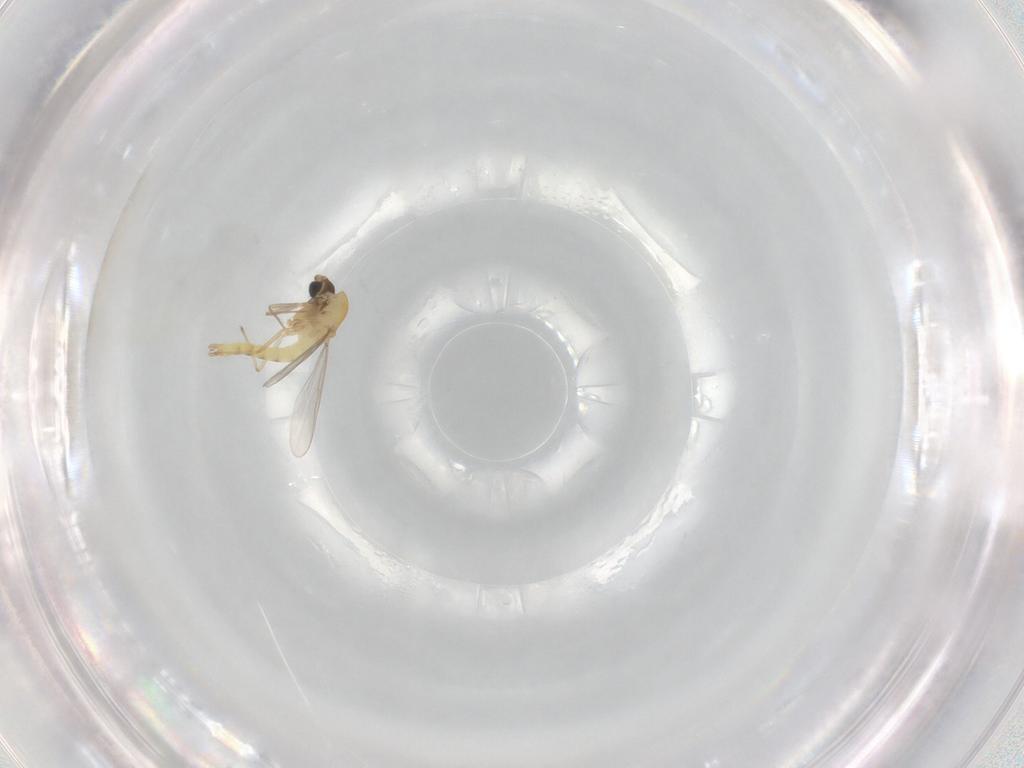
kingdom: Animalia
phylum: Arthropoda
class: Insecta
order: Diptera
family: Chironomidae
